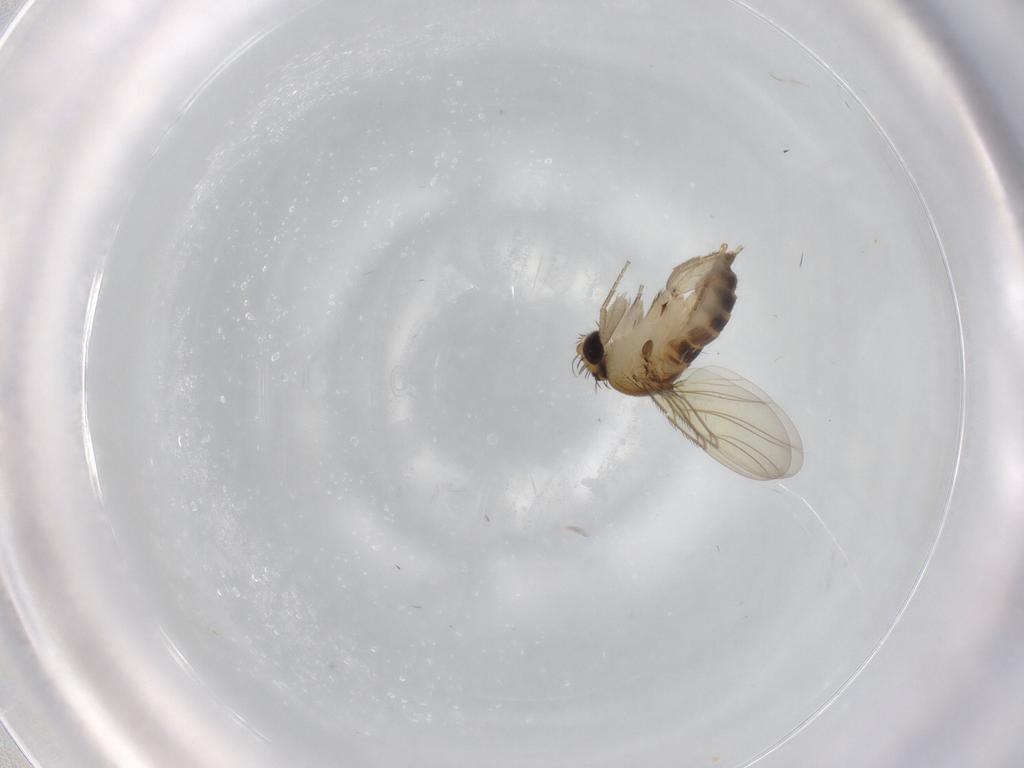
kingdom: Animalia
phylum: Arthropoda
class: Insecta
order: Diptera
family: Phoridae
